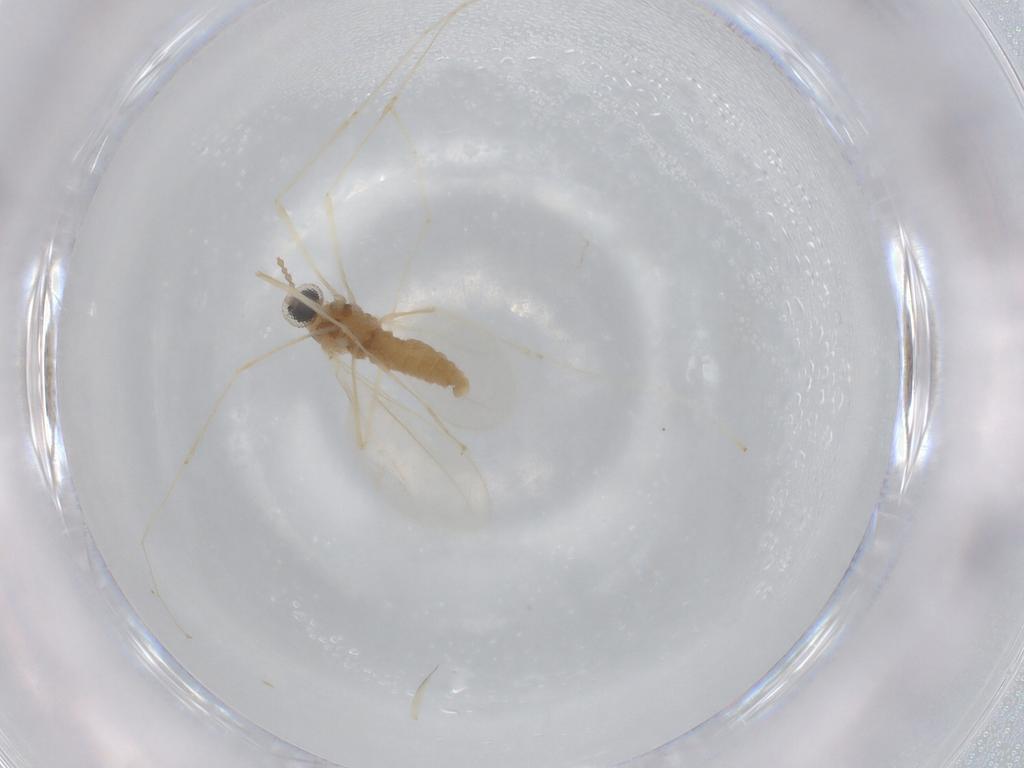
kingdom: Animalia
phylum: Arthropoda
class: Insecta
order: Diptera
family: Cecidomyiidae
